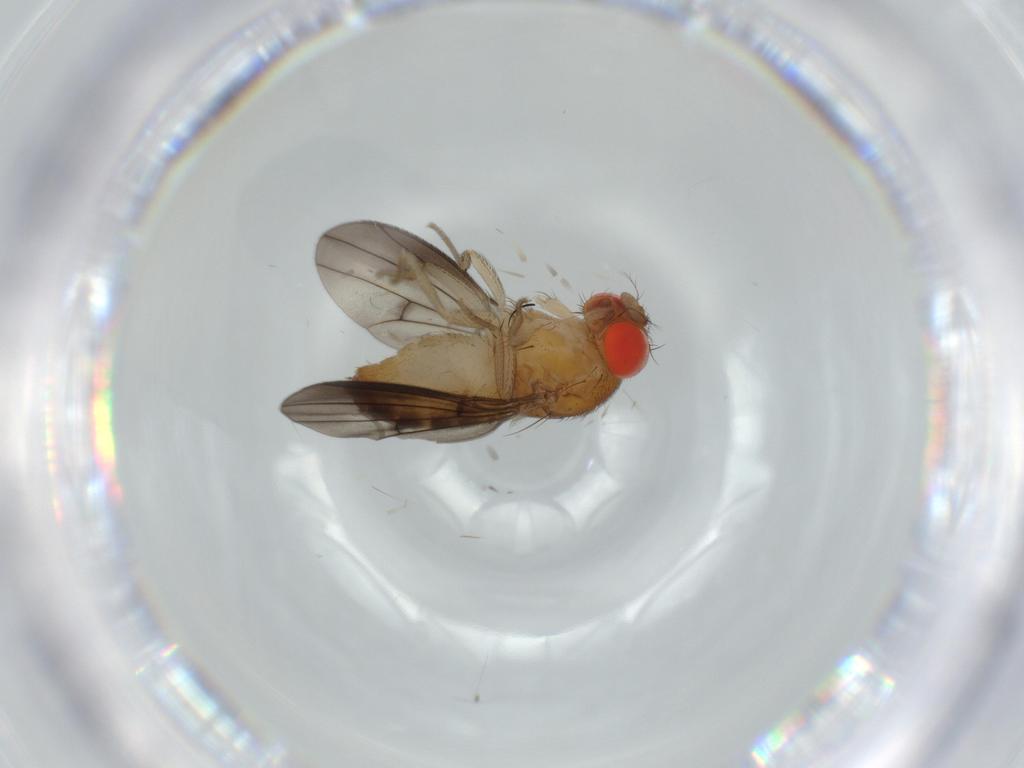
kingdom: Animalia
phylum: Arthropoda
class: Insecta
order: Diptera
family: Drosophilidae
